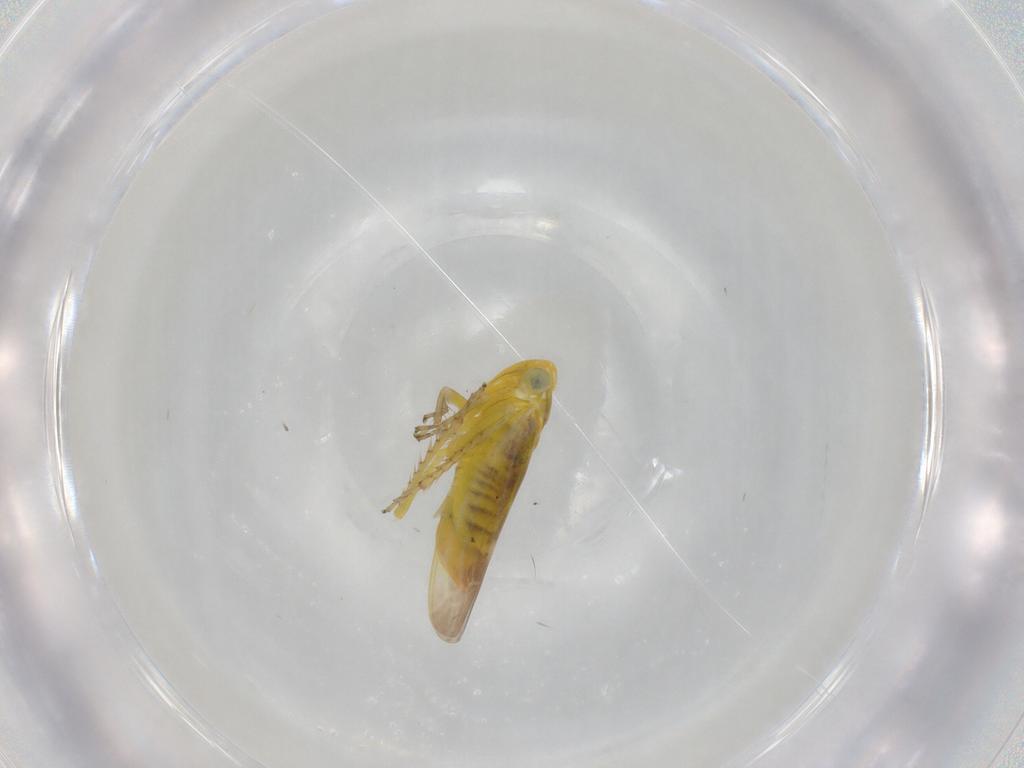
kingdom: Animalia
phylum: Arthropoda
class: Insecta
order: Hemiptera
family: Cicadellidae
